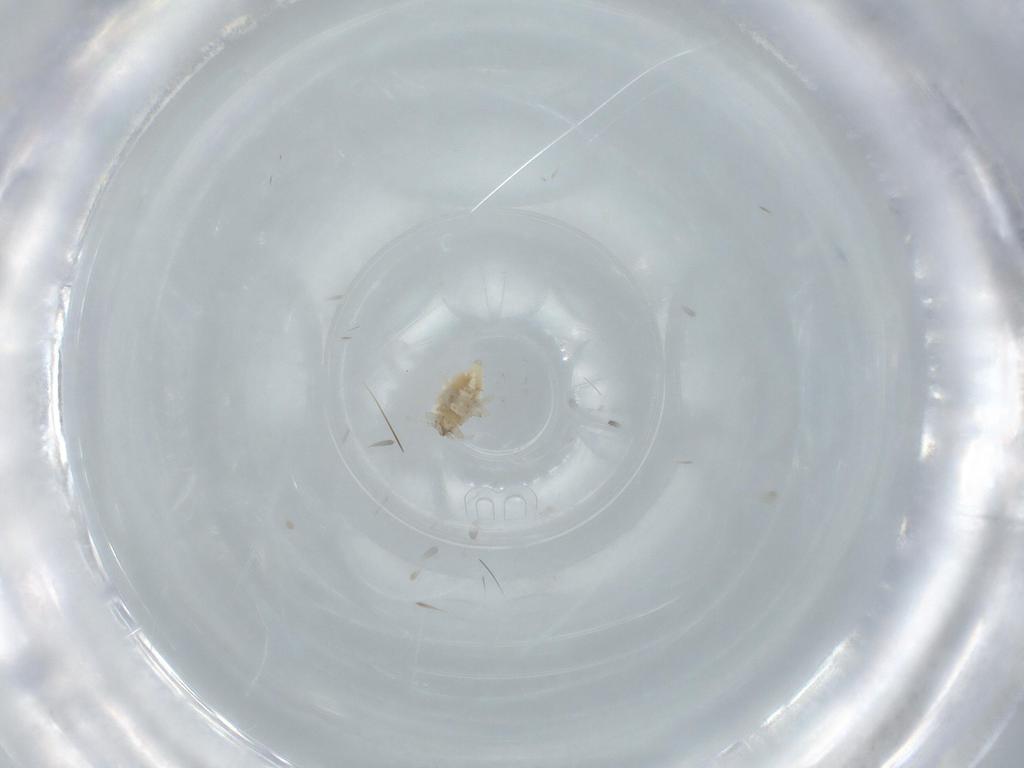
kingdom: Animalia
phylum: Arthropoda
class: Insecta
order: Neuroptera
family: Coniopterygidae
